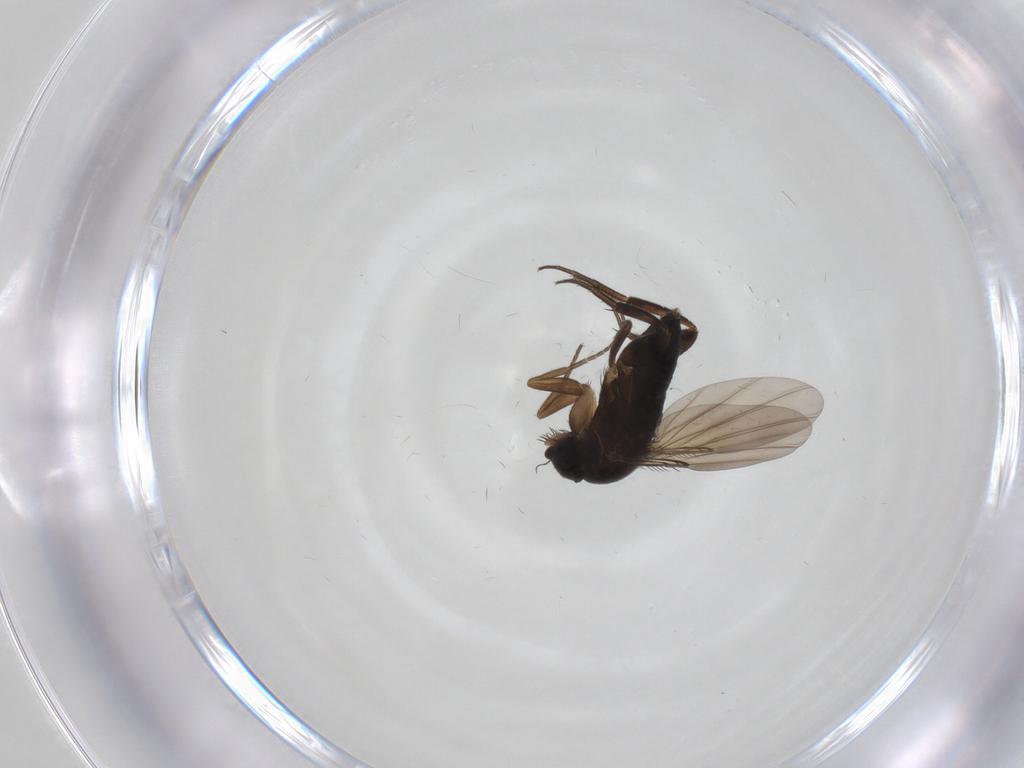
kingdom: Animalia
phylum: Arthropoda
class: Insecta
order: Diptera
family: Phoridae
